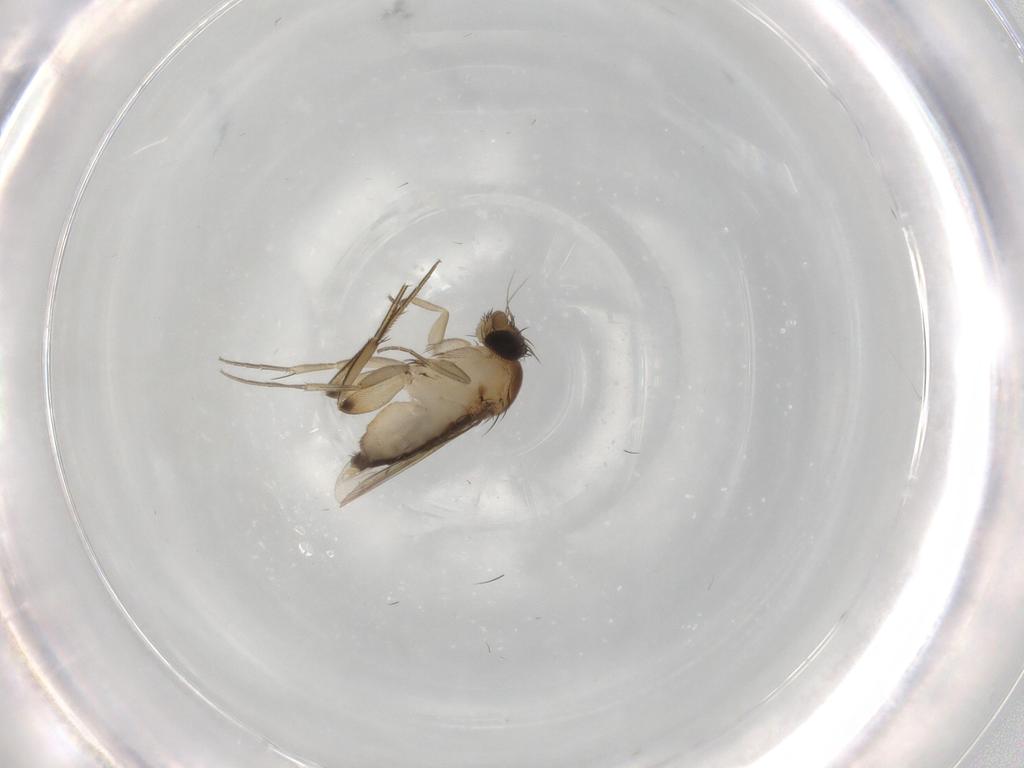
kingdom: Animalia
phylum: Arthropoda
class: Insecta
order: Diptera
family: Phoridae
